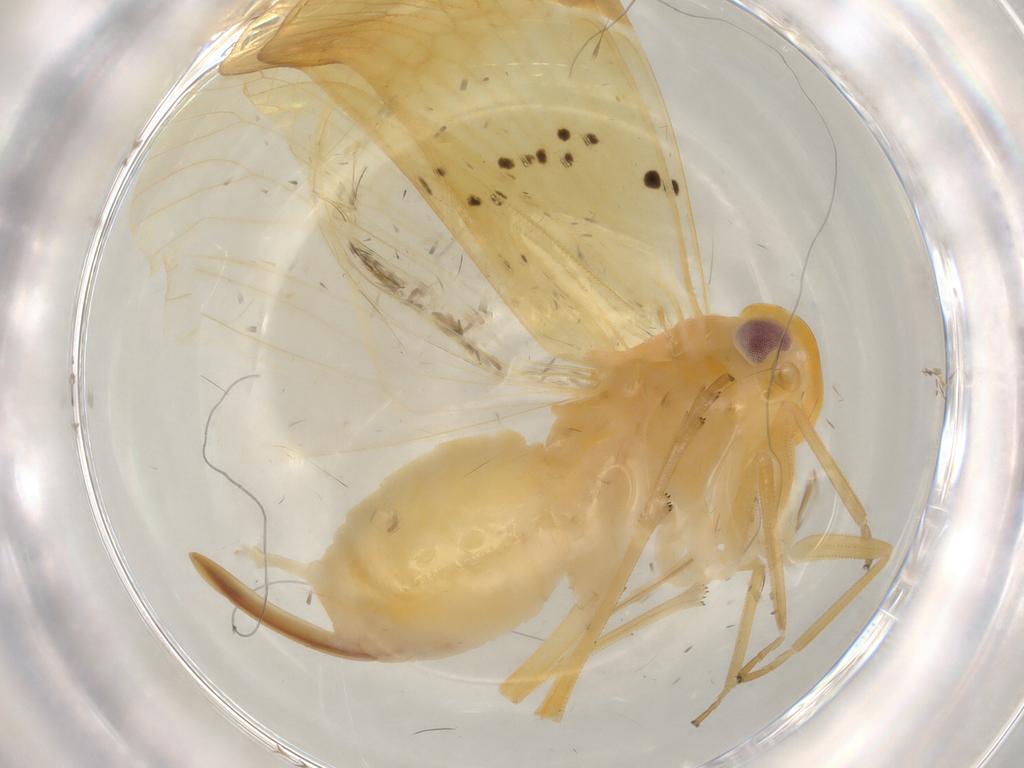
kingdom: Animalia
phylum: Arthropoda
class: Insecta
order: Hemiptera
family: Cixiidae
